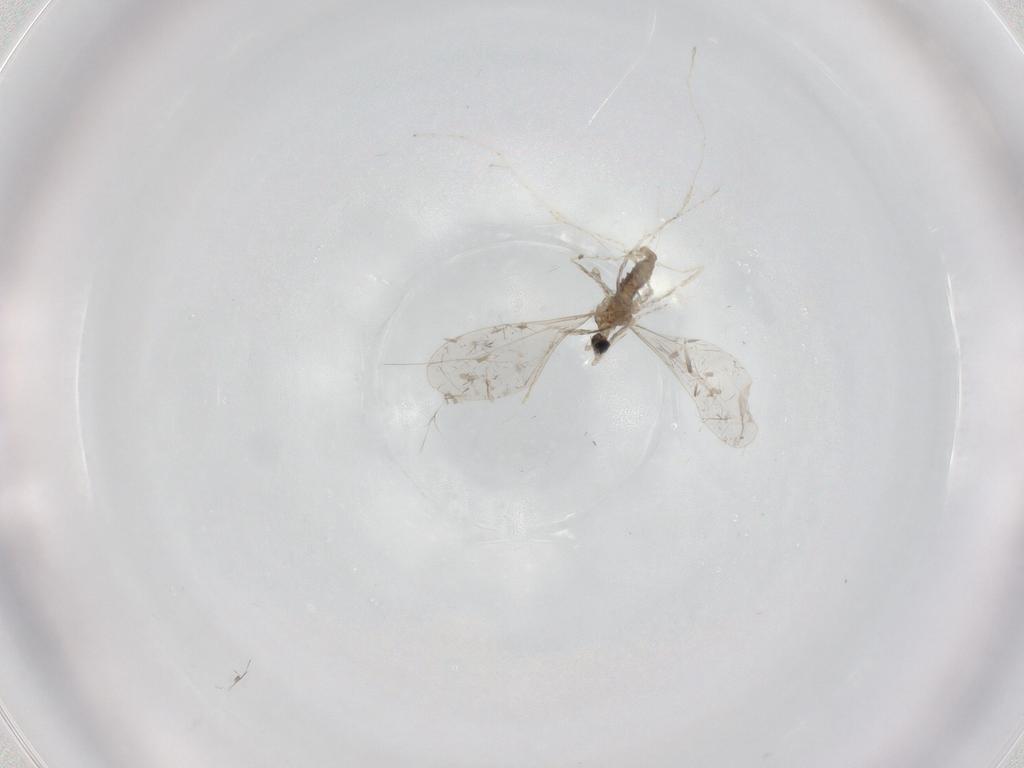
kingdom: Animalia
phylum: Arthropoda
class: Insecta
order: Diptera
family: Cecidomyiidae
